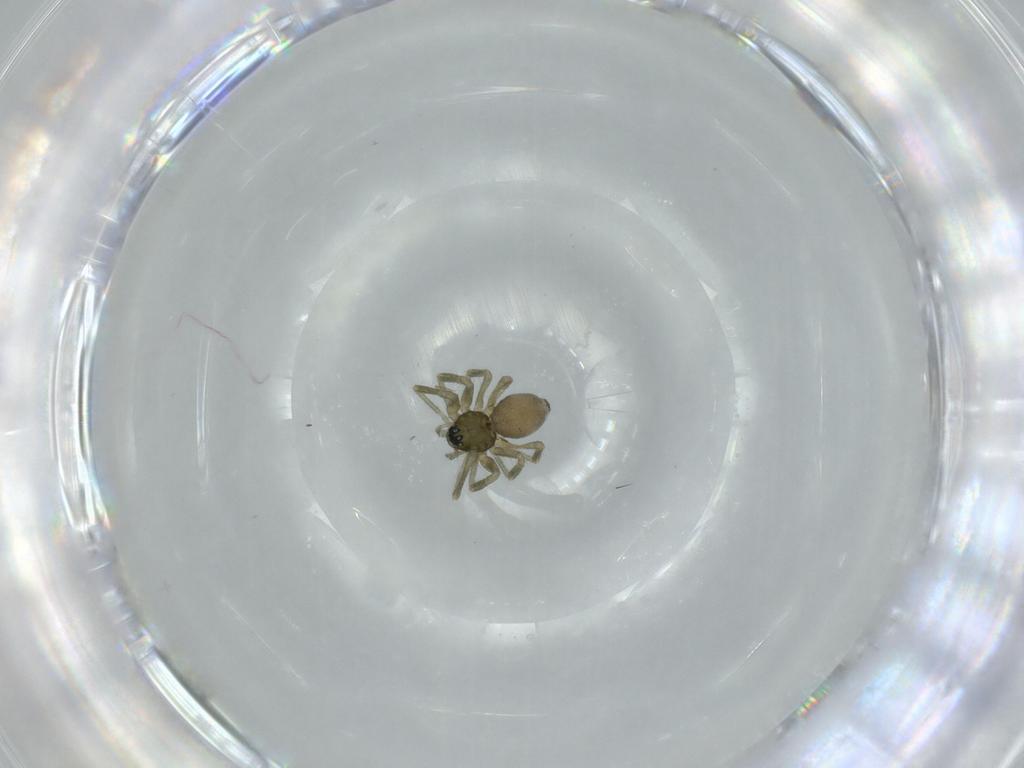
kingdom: Animalia
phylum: Arthropoda
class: Arachnida
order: Araneae
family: Linyphiidae
